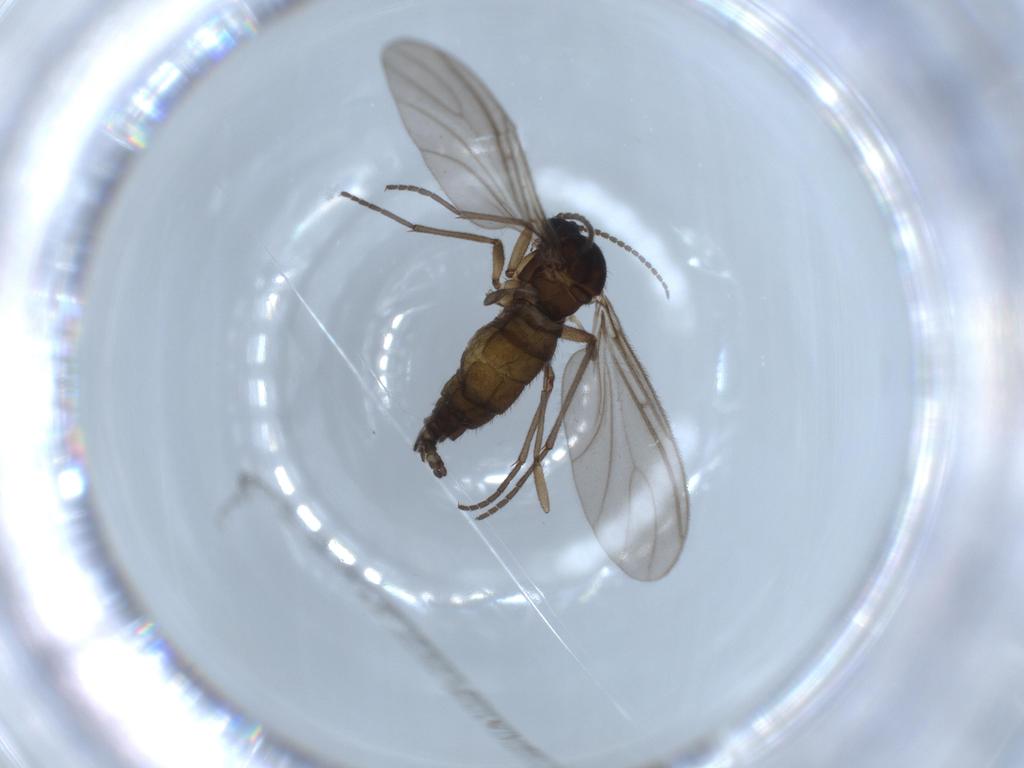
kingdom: Animalia
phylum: Arthropoda
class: Insecta
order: Diptera
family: Sciaridae
